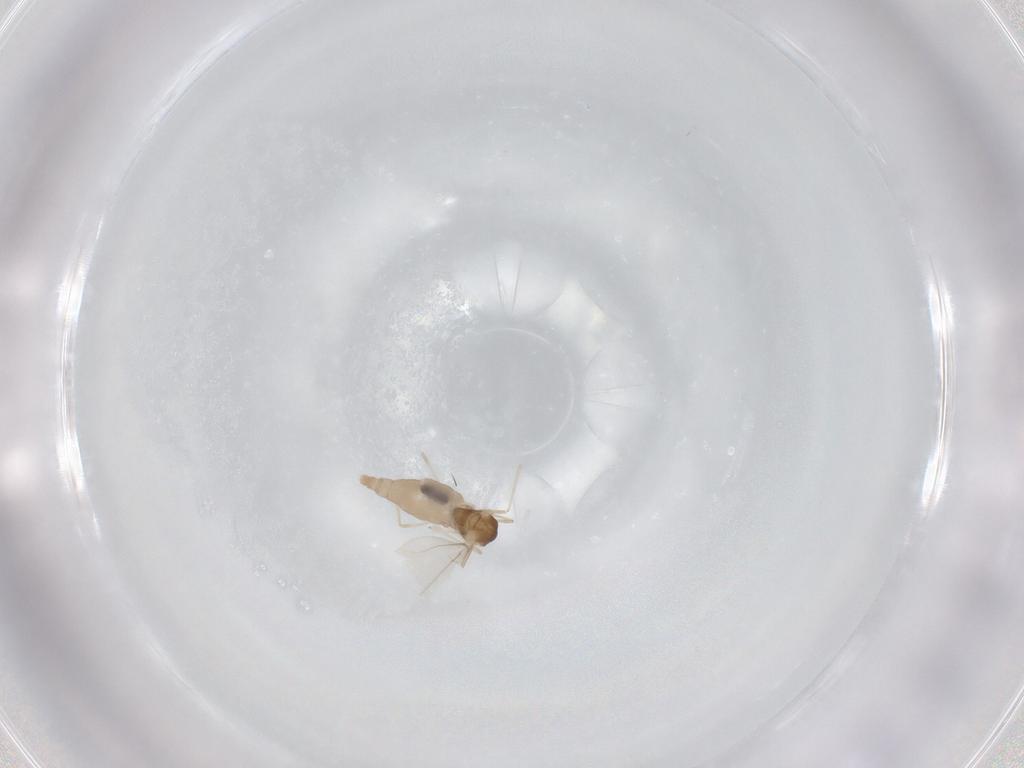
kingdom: Animalia
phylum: Arthropoda
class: Insecta
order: Diptera
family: Cecidomyiidae
